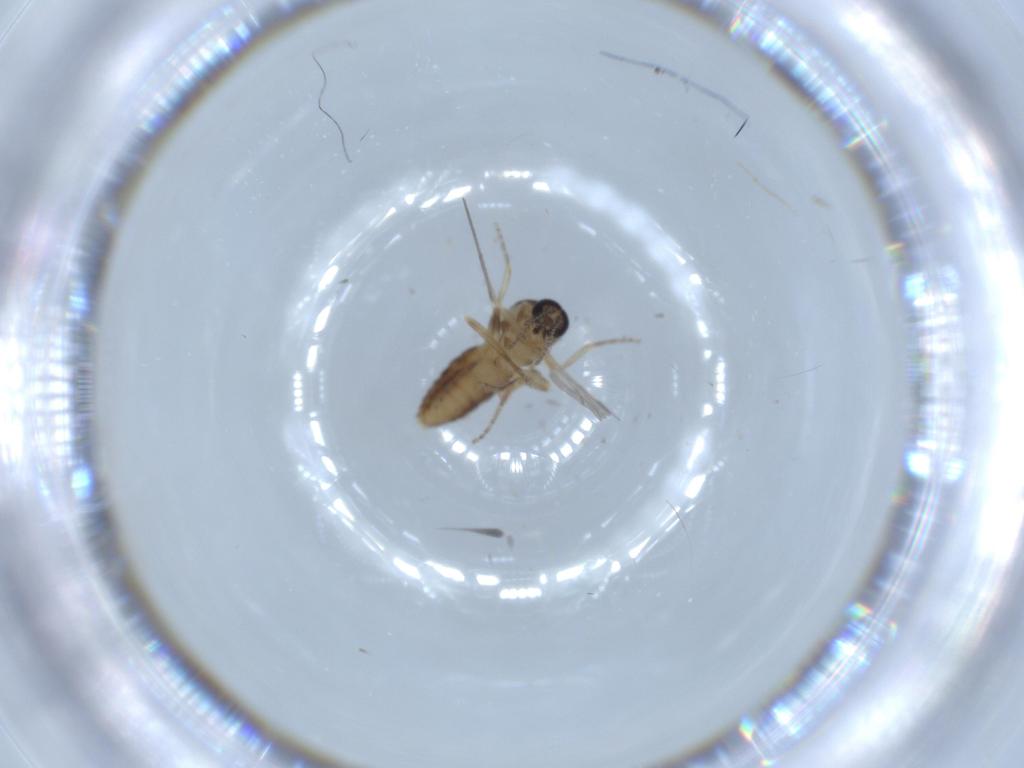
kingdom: Animalia
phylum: Arthropoda
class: Insecta
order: Diptera
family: Ceratopogonidae
